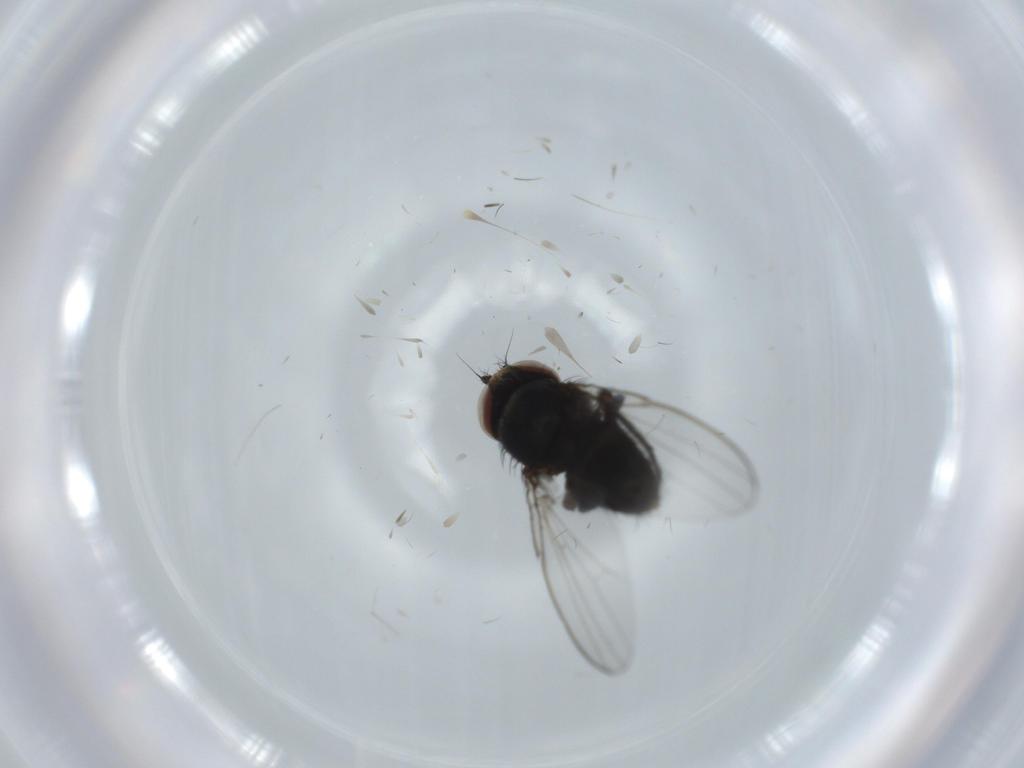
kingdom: Animalia
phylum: Arthropoda
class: Insecta
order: Diptera
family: Milichiidae
